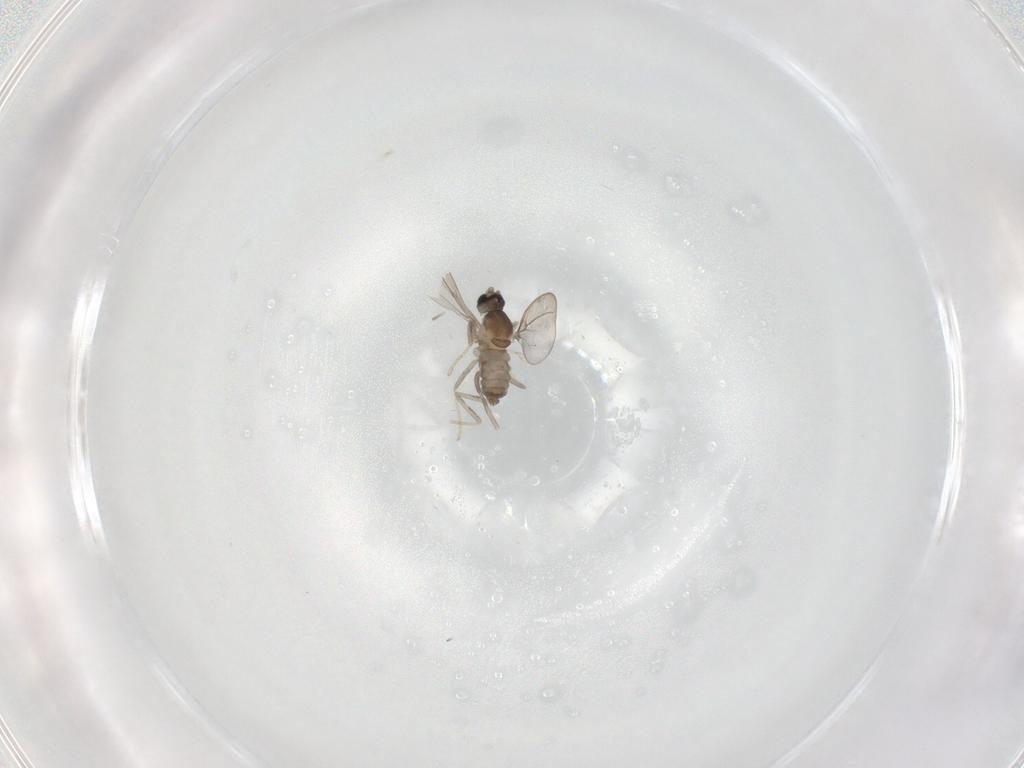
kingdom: Animalia
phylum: Arthropoda
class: Insecta
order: Diptera
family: Cecidomyiidae
